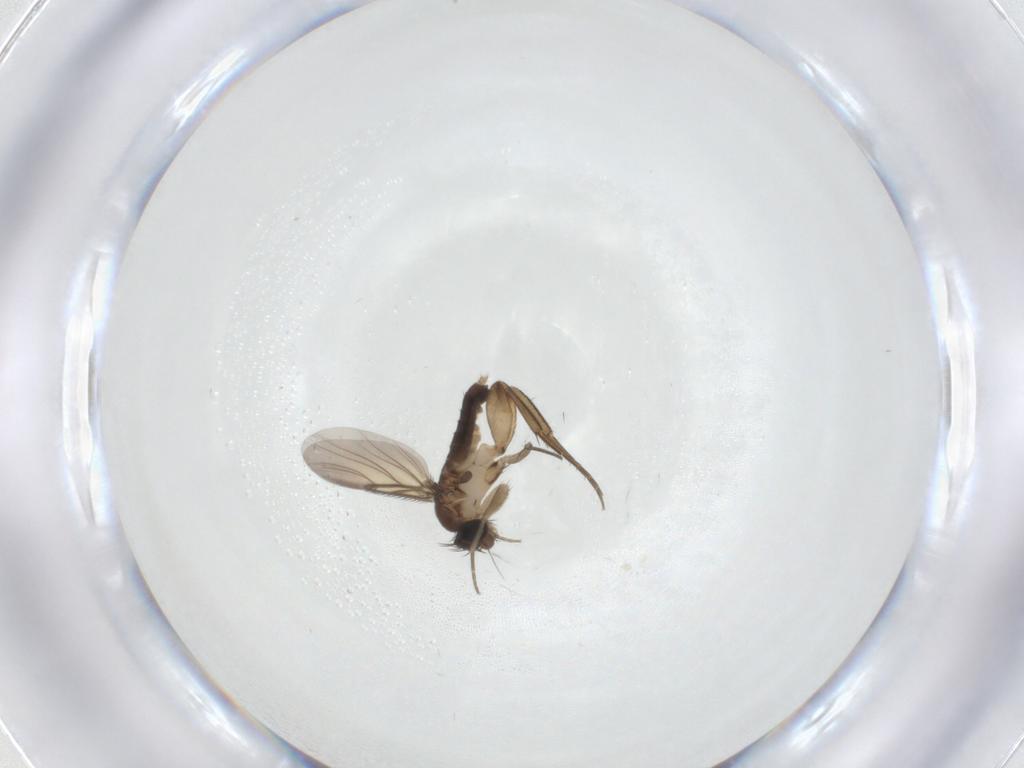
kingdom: Animalia
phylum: Arthropoda
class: Insecta
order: Diptera
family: Phoridae
